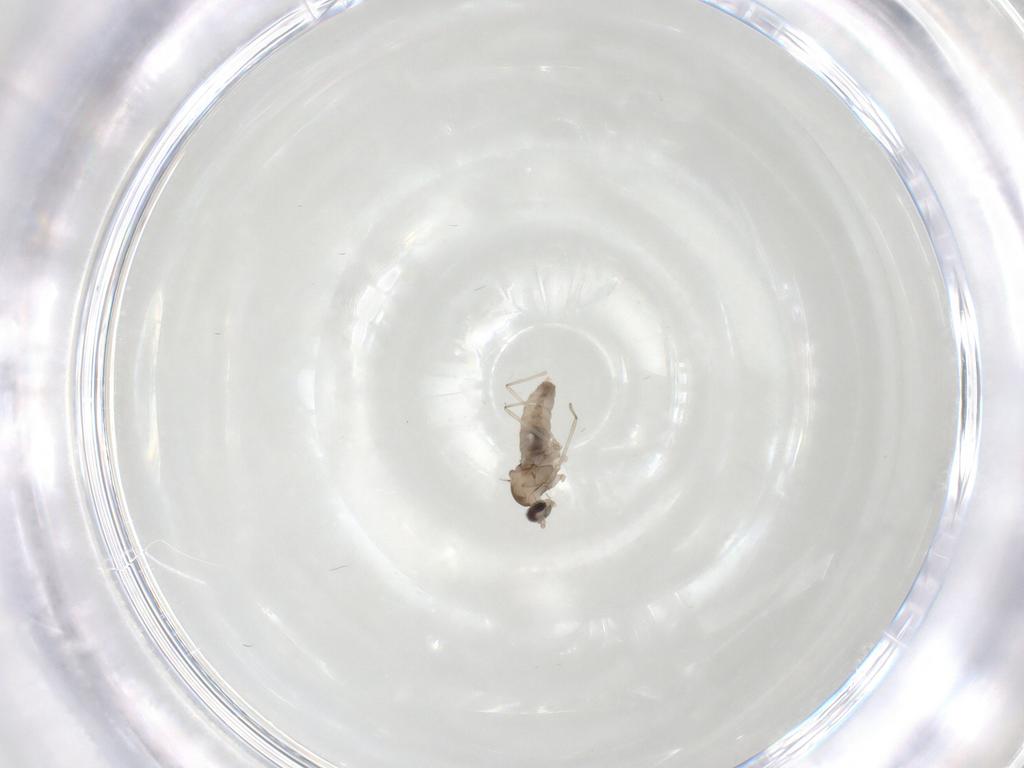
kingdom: Animalia
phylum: Arthropoda
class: Insecta
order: Diptera
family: Cecidomyiidae
